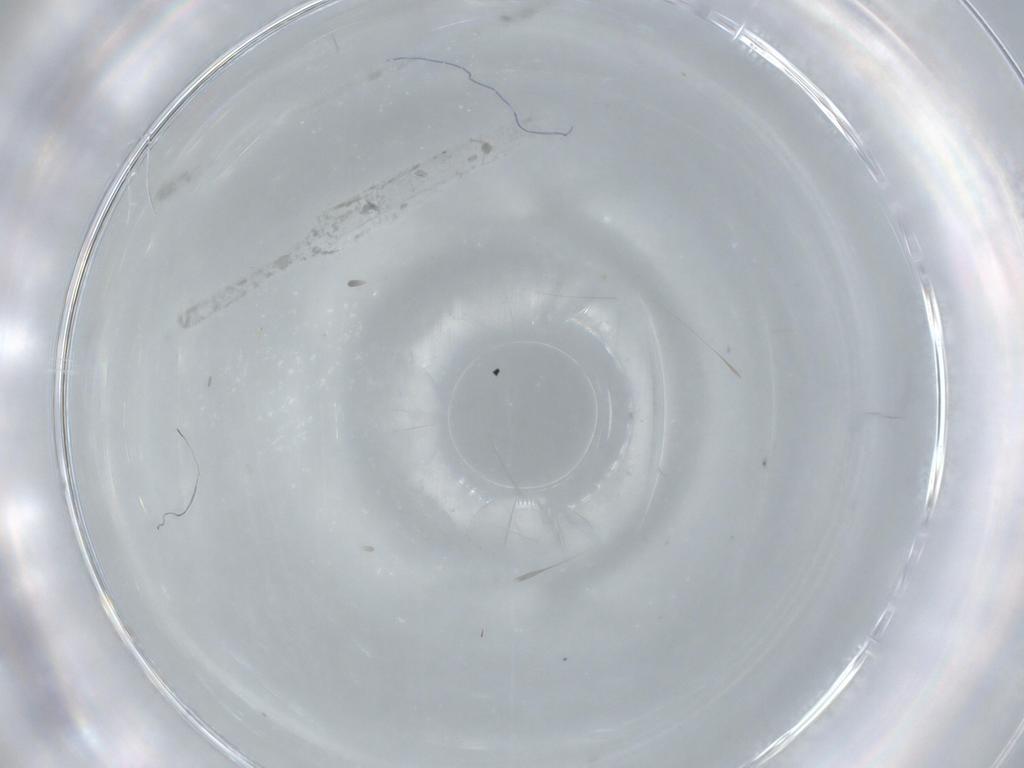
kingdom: Animalia
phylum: Arthropoda
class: Insecta
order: Blattodea
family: Ectobiidae
